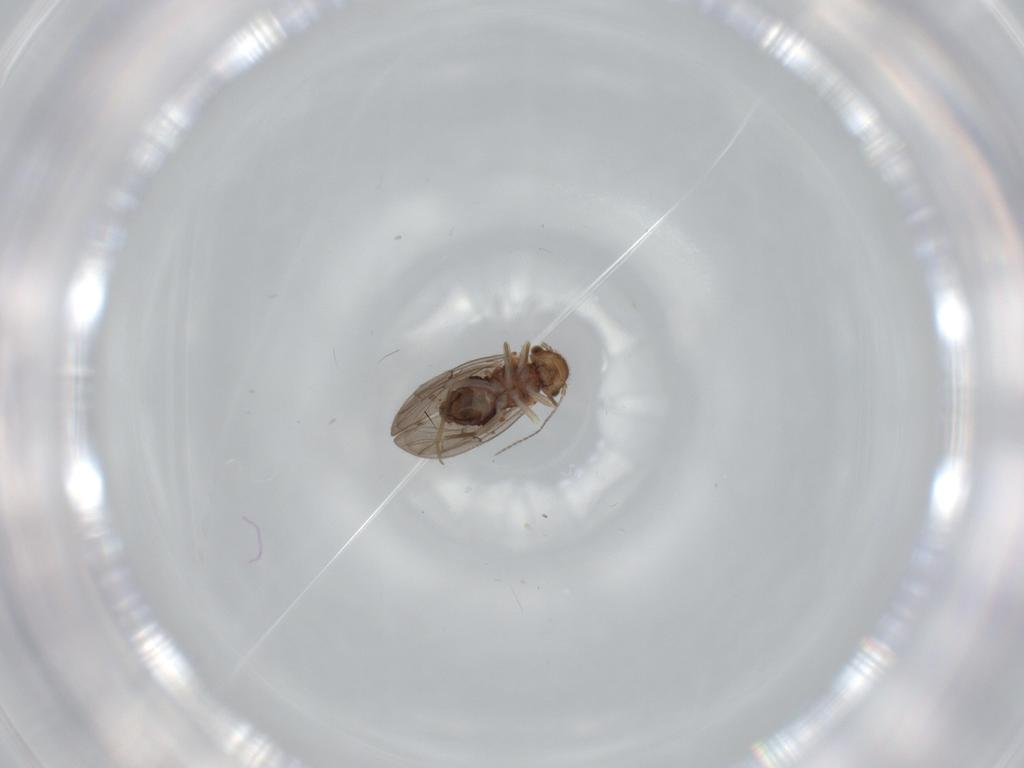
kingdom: Animalia
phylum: Arthropoda
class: Insecta
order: Psocodea
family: Ectopsocidae
